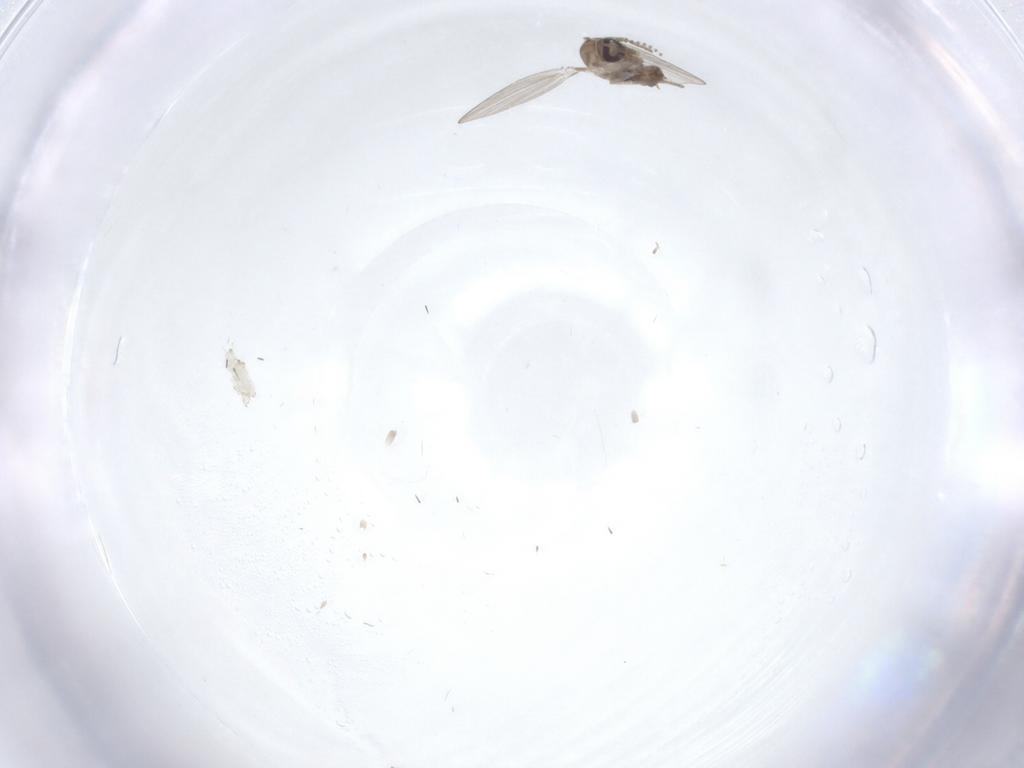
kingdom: Animalia
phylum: Arthropoda
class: Insecta
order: Diptera
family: Psychodidae
